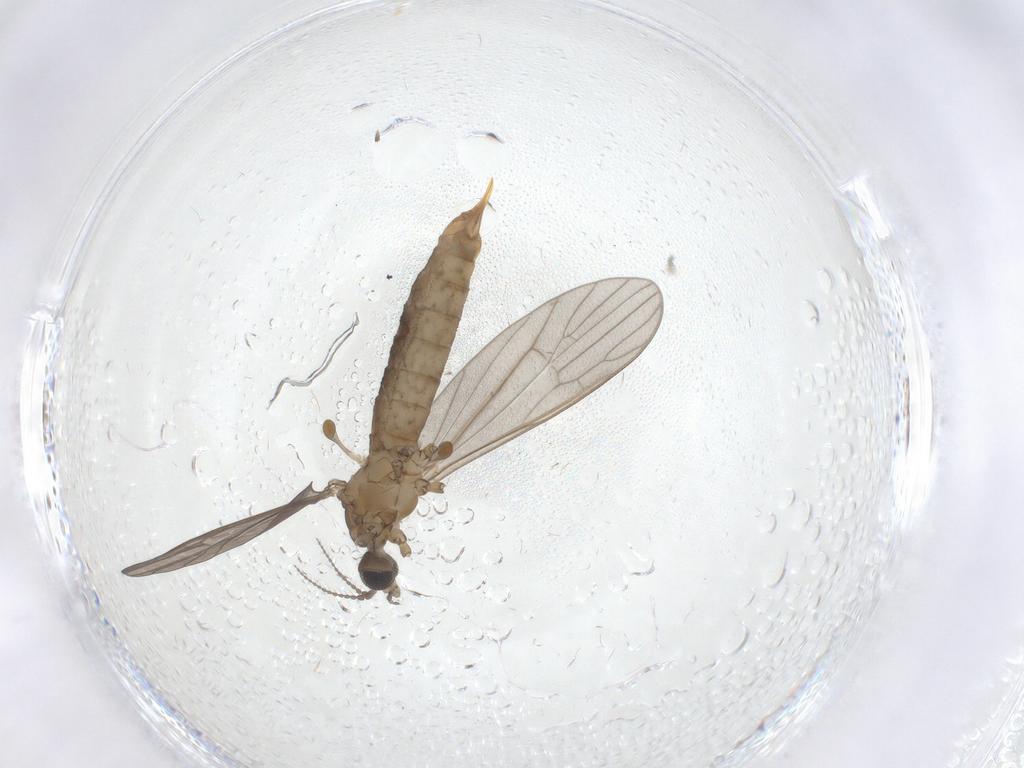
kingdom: Animalia
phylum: Arthropoda
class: Insecta
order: Diptera
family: Limoniidae
